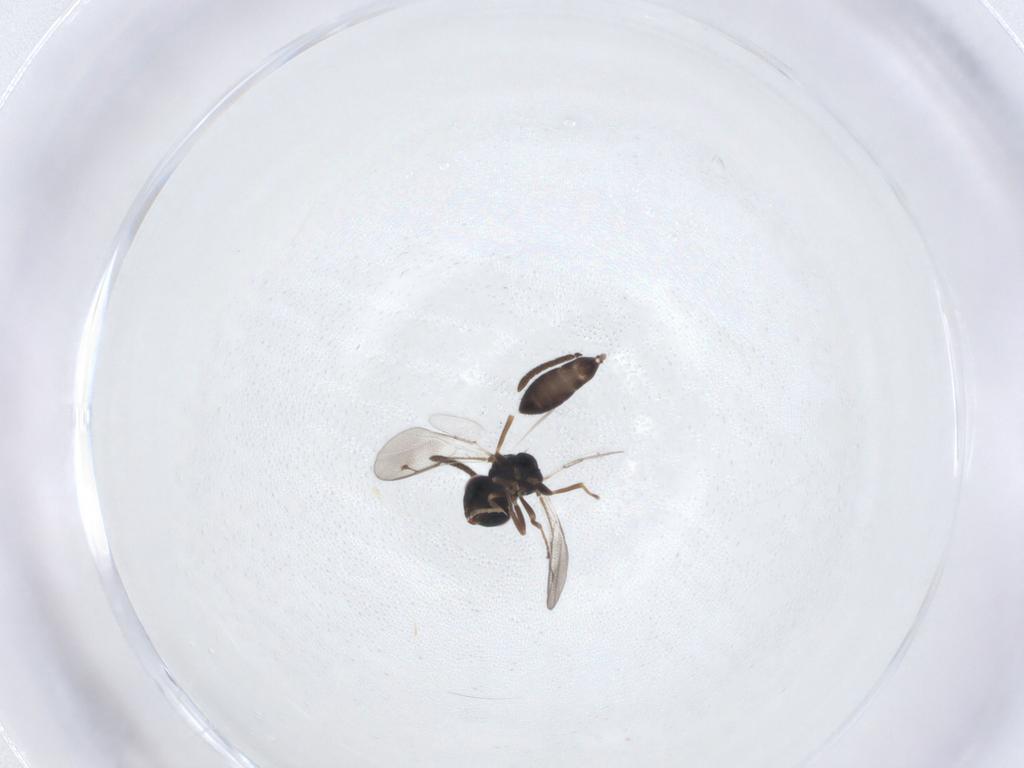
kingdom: Animalia
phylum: Arthropoda
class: Insecta
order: Hymenoptera
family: Pteromalidae
